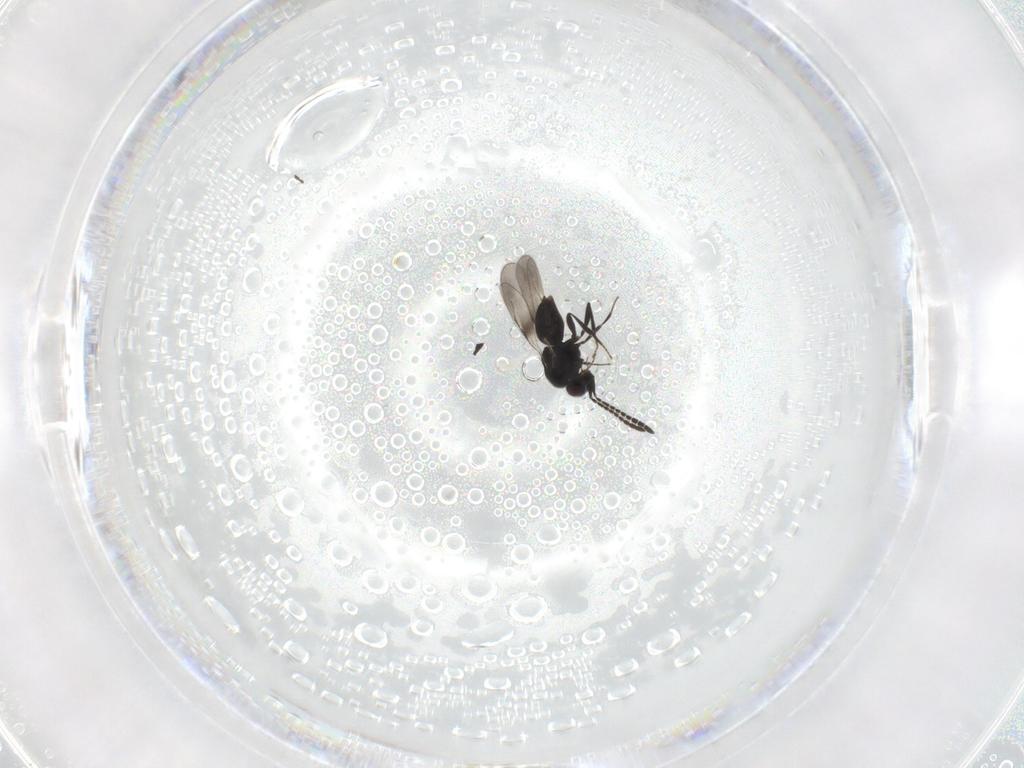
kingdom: Animalia
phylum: Arthropoda
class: Insecta
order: Hymenoptera
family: Ceraphronidae
